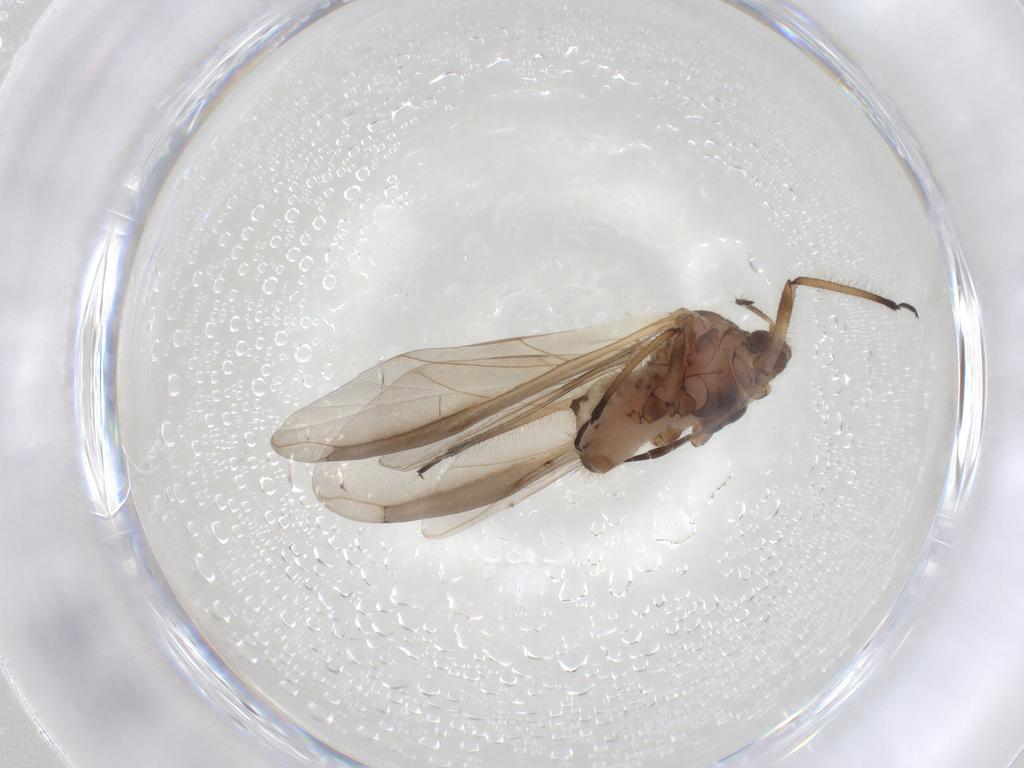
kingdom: Animalia
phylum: Arthropoda
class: Insecta
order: Hemiptera
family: Aphididae
